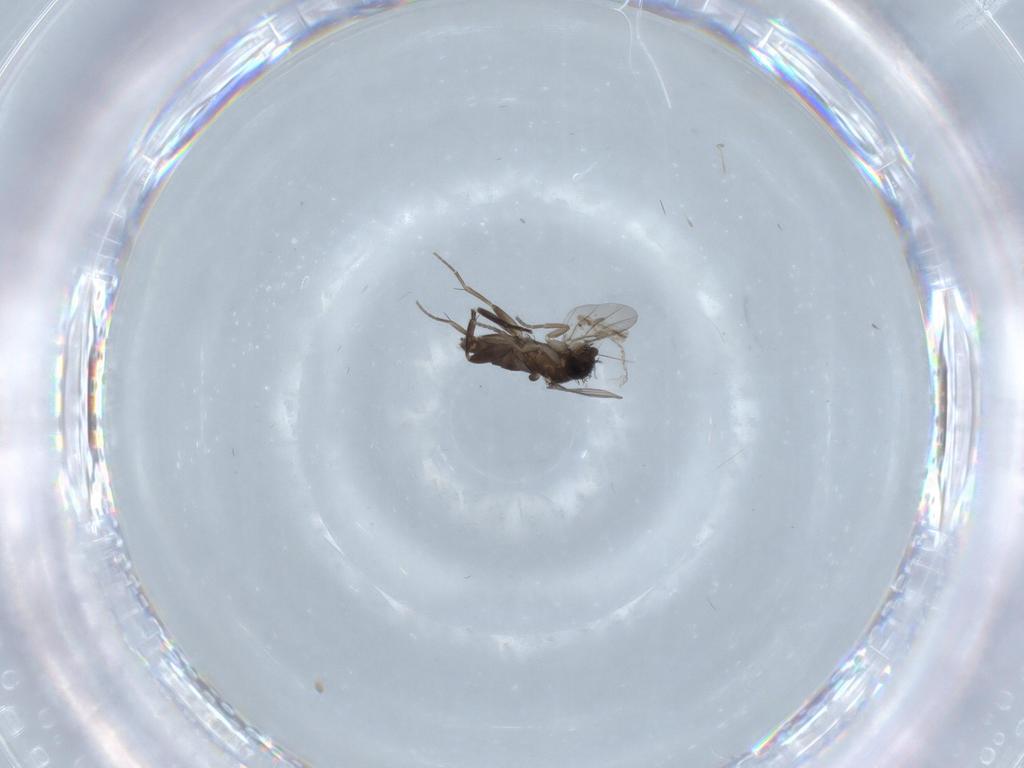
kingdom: Animalia
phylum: Arthropoda
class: Insecta
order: Diptera
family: Phoridae
